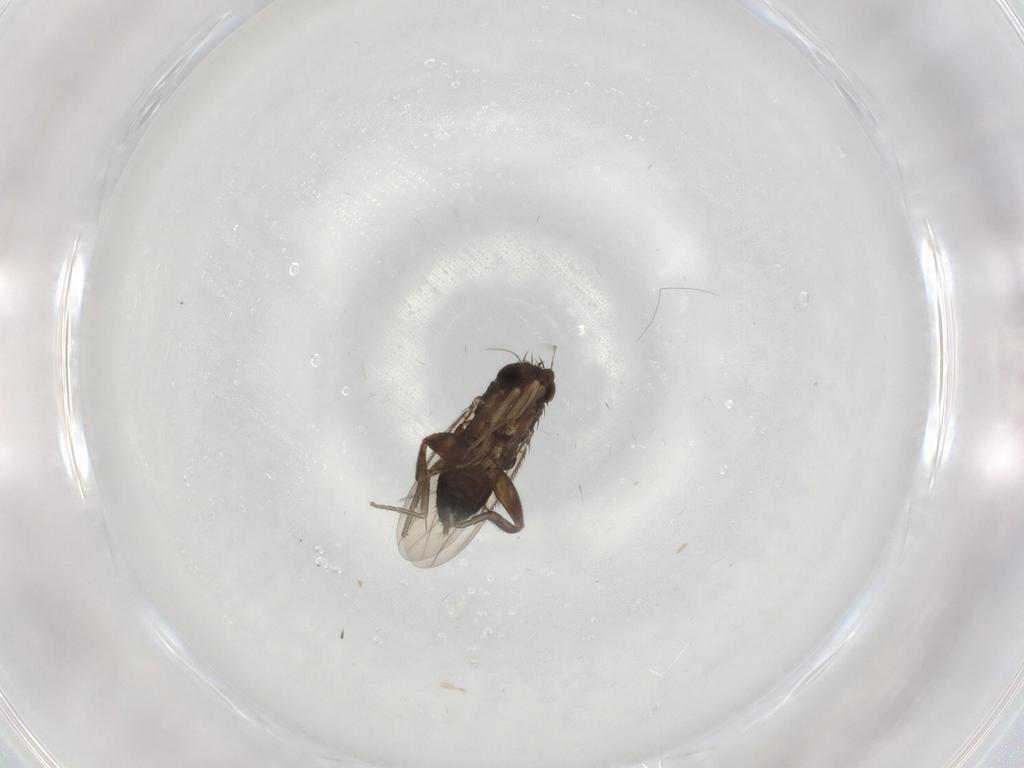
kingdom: Animalia
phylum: Arthropoda
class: Insecta
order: Diptera
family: Phoridae
